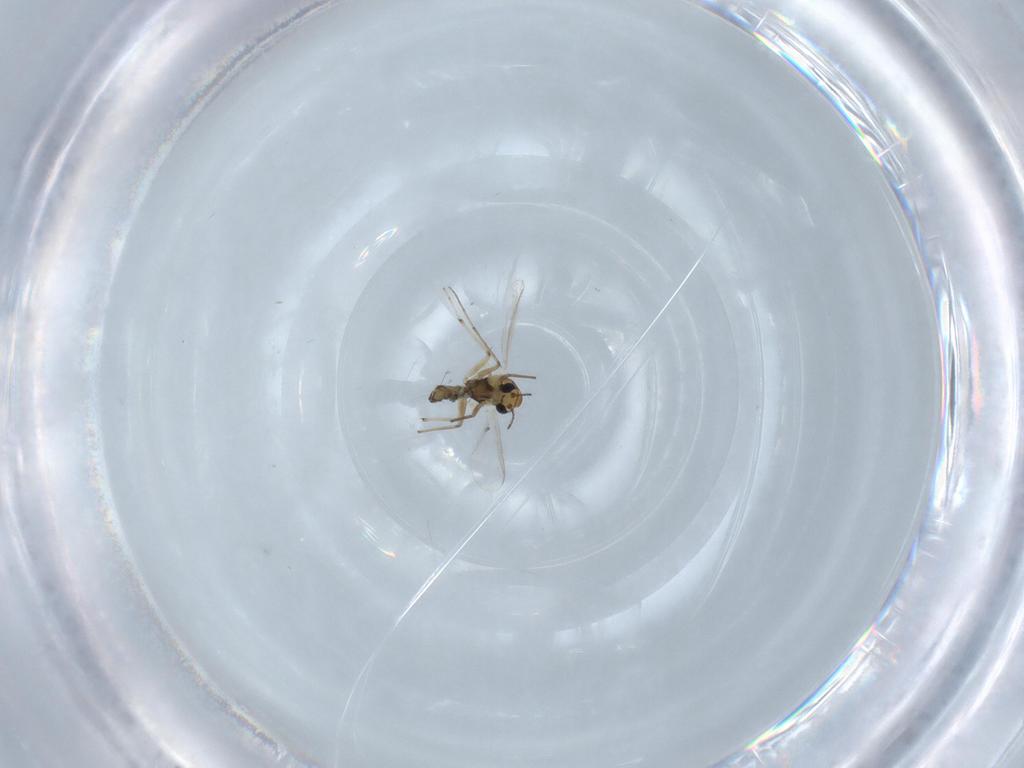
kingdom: Animalia
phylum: Arthropoda
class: Insecta
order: Diptera
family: Chironomidae
